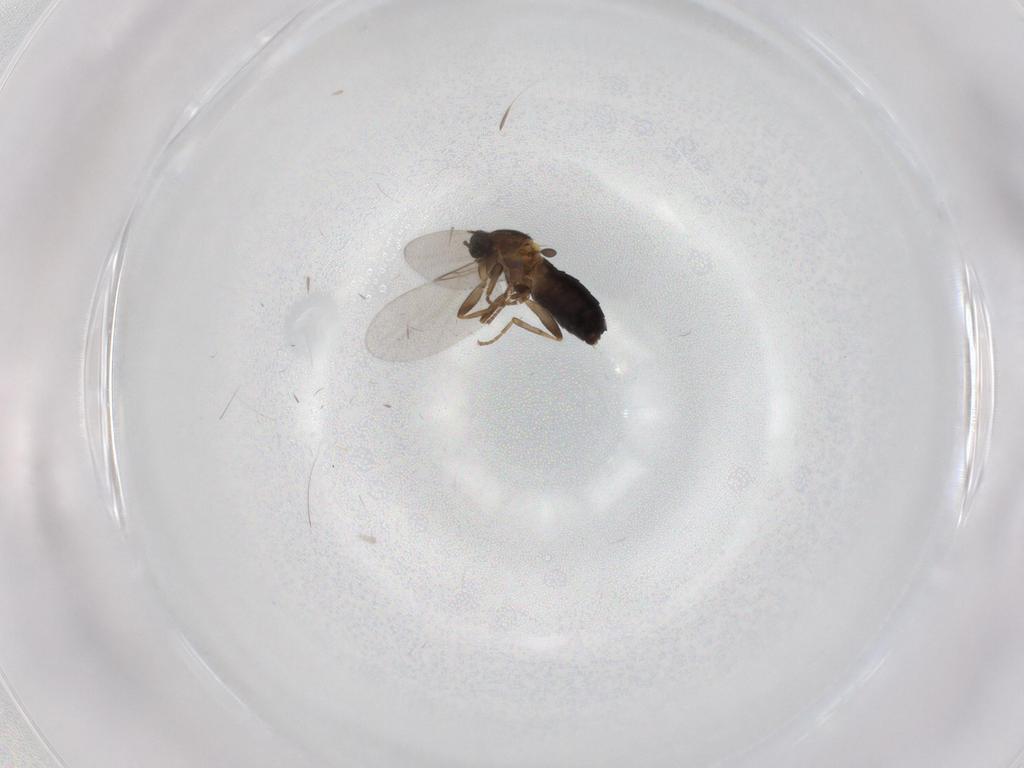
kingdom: Animalia
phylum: Arthropoda
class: Insecta
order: Diptera
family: Scatopsidae
